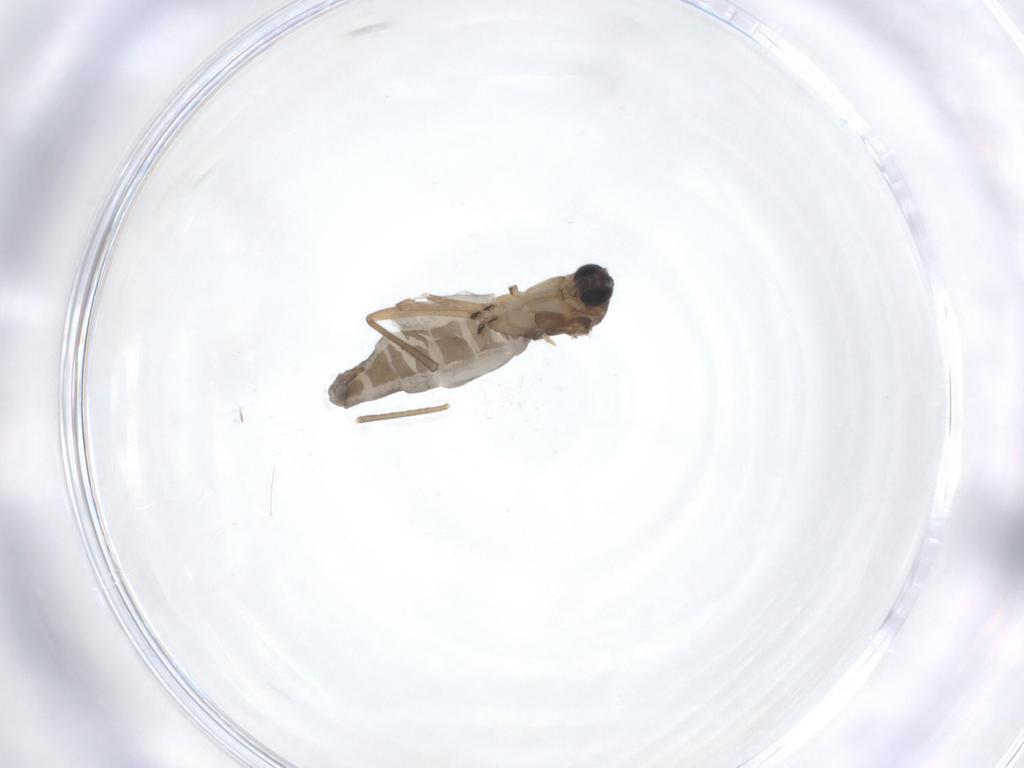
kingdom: Animalia
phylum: Arthropoda
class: Insecta
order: Diptera
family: Sciaridae
